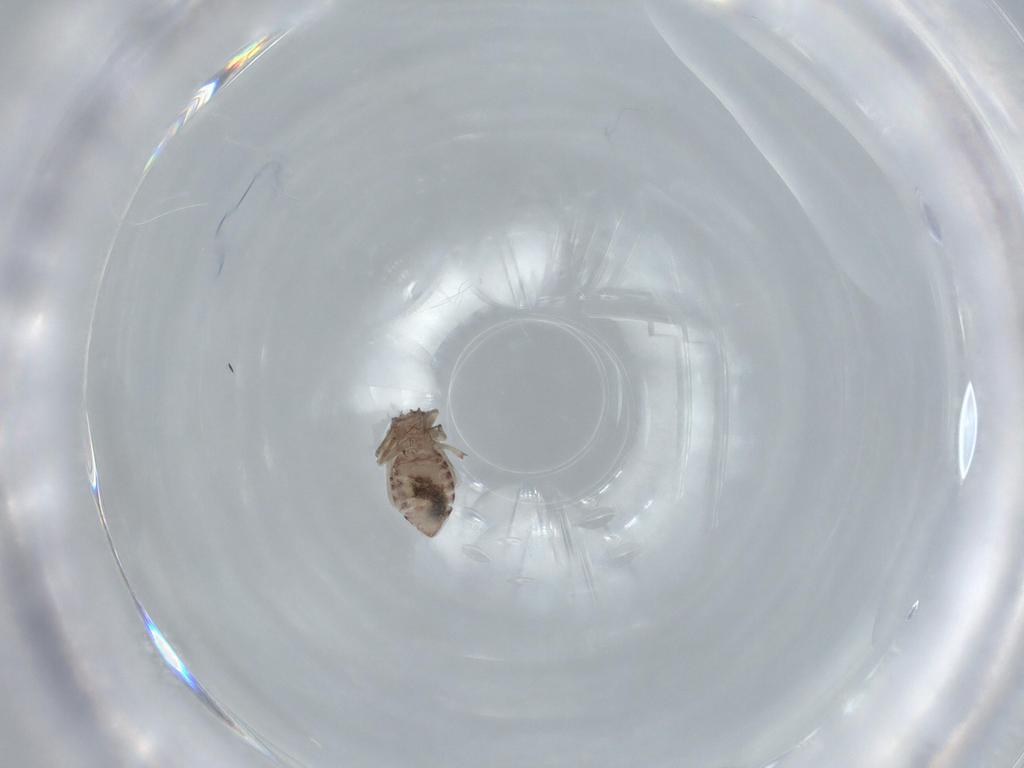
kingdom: Animalia
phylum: Arthropoda
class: Collembola
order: Symphypleona
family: Sminthurididae
